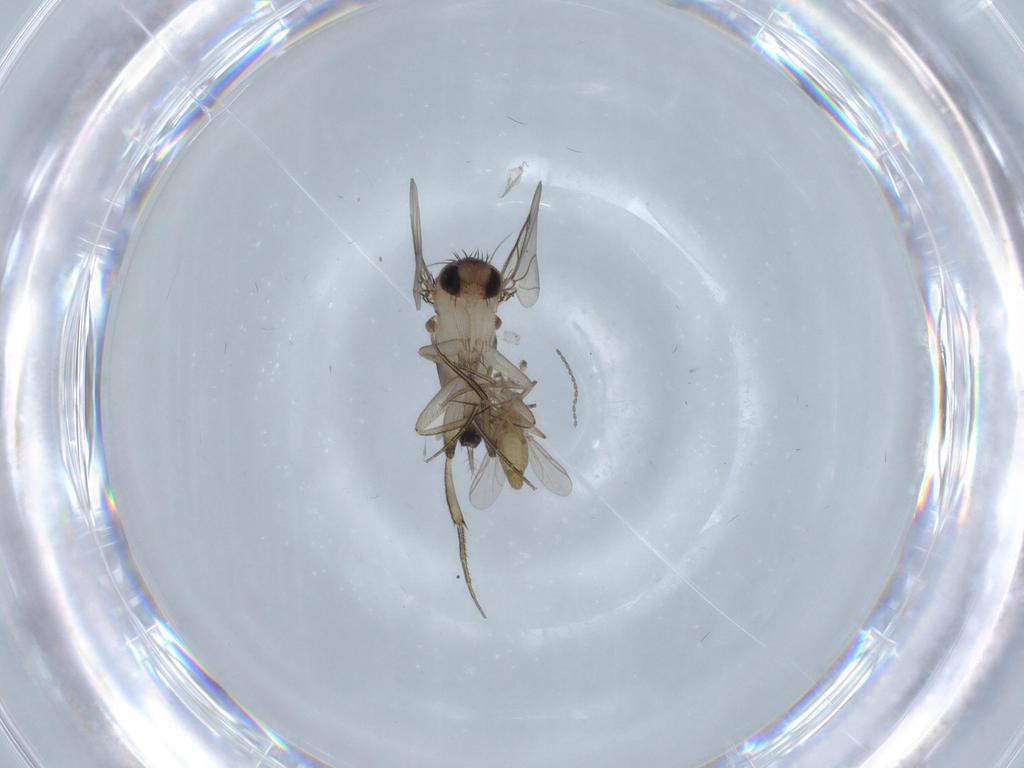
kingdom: Animalia
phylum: Arthropoda
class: Insecta
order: Diptera
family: Chironomidae
